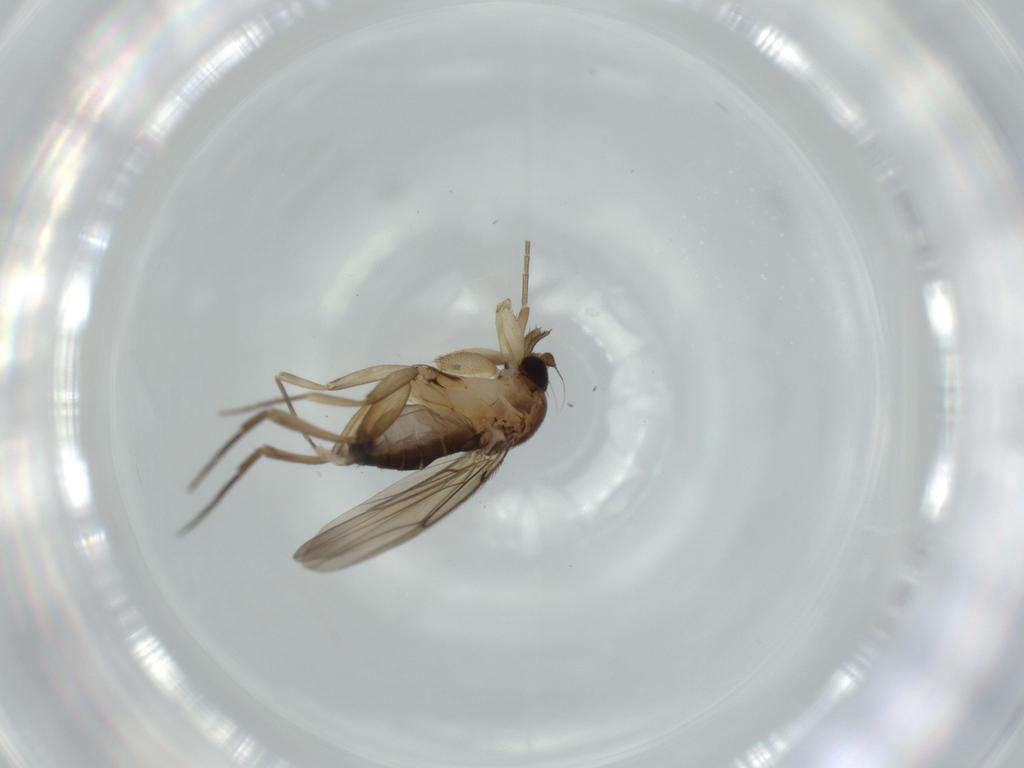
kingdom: Animalia
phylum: Arthropoda
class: Insecta
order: Diptera
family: Phoridae
